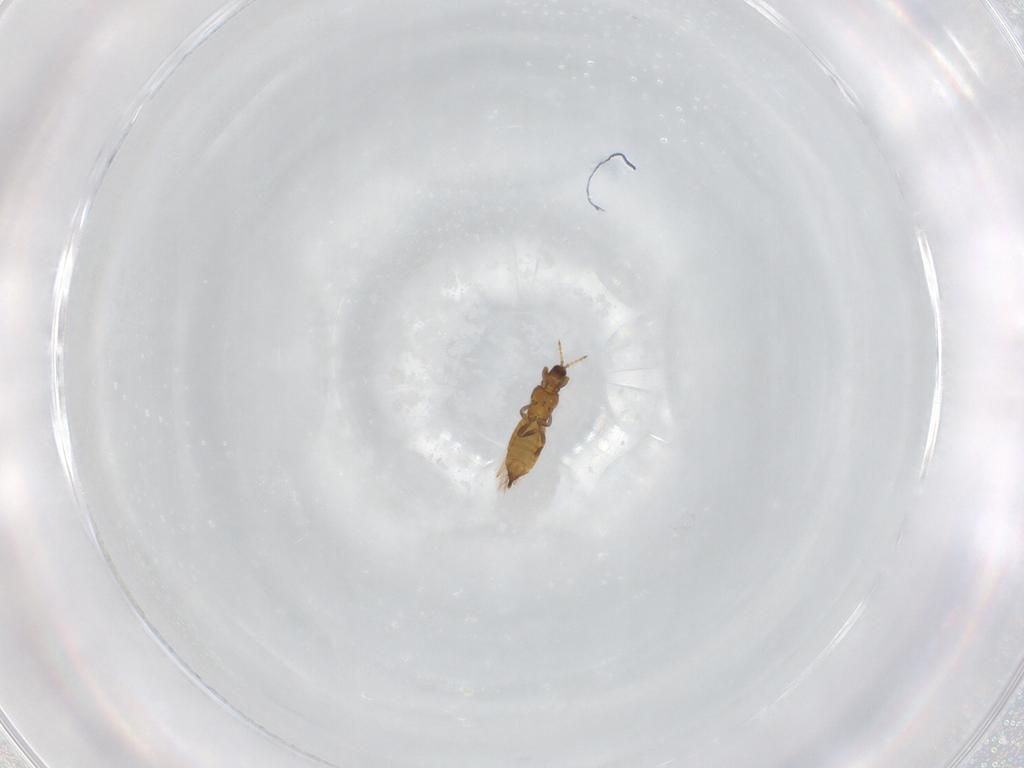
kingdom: Animalia
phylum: Arthropoda
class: Insecta
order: Thysanoptera
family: Thripidae
